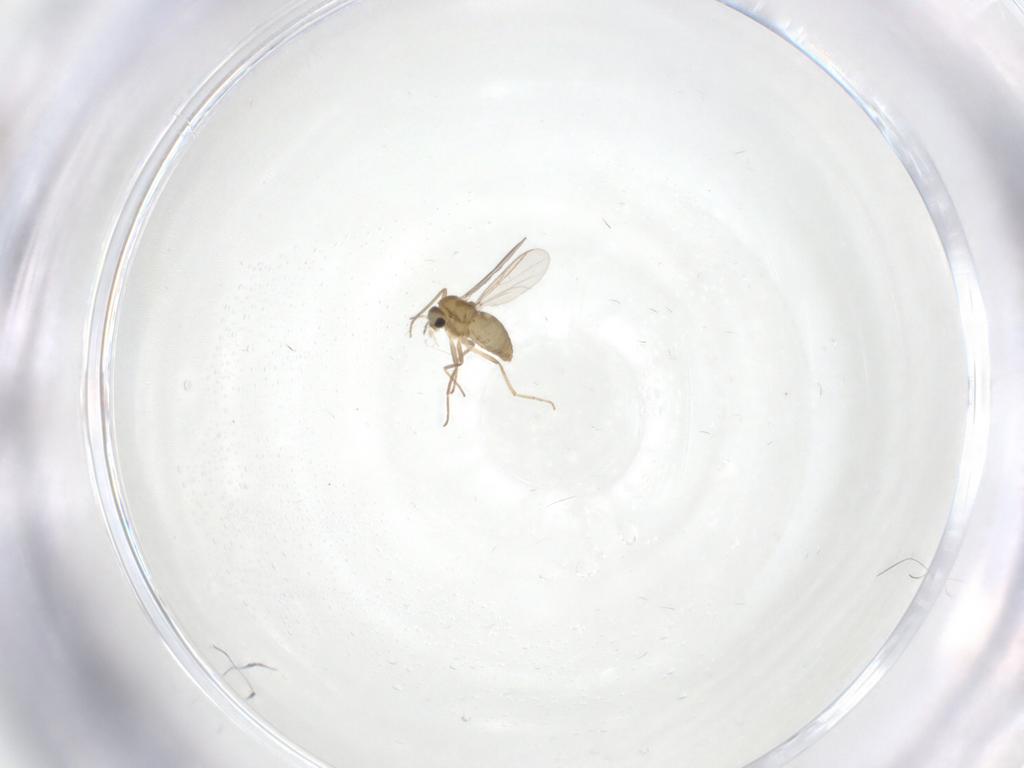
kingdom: Animalia
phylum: Arthropoda
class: Insecta
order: Diptera
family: Chironomidae
